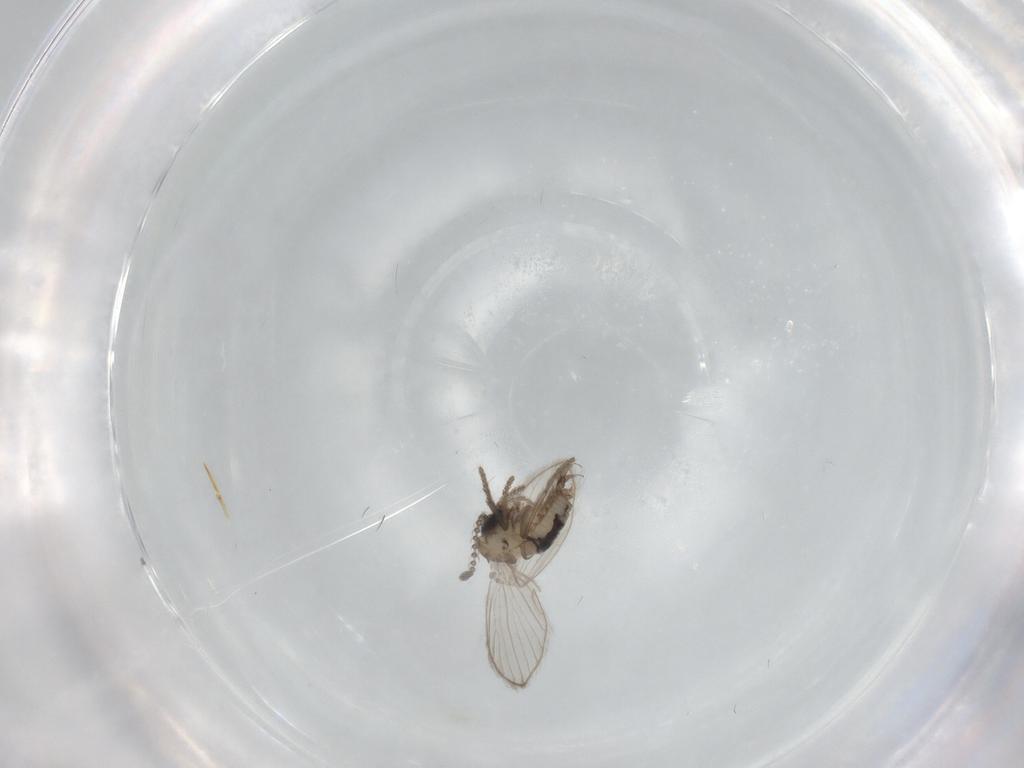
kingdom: Animalia
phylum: Arthropoda
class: Insecta
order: Diptera
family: Psychodidae
